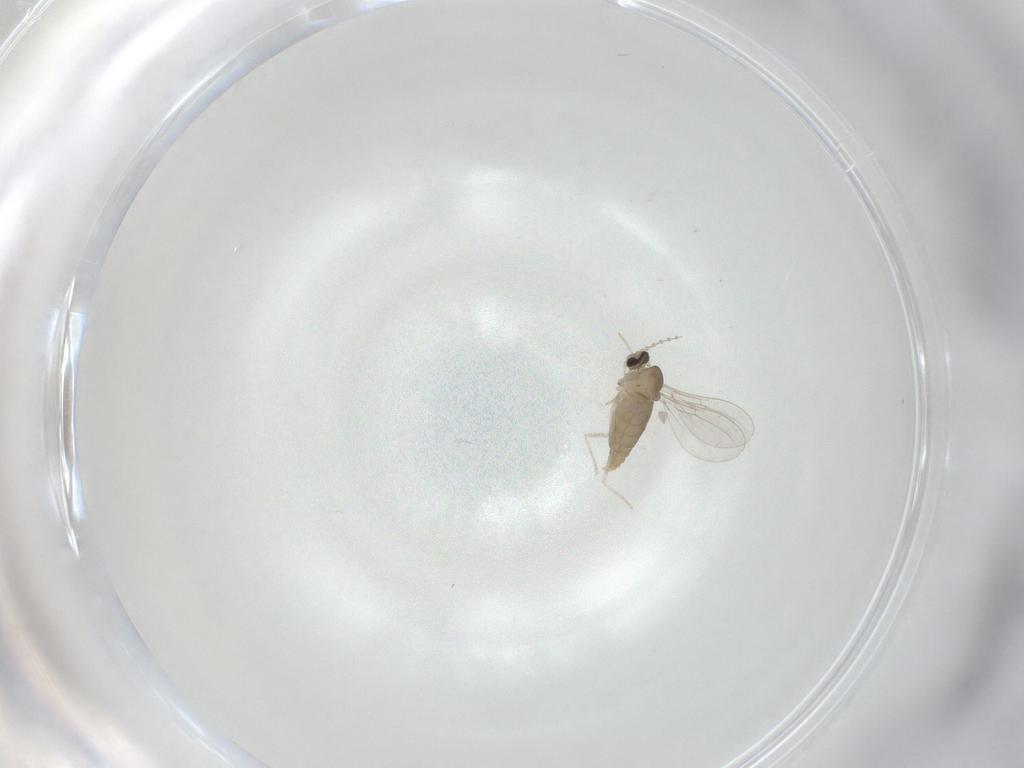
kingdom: Animalia
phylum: Arthropoda
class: Insecta
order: Diptera
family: Cecidomyiidae
